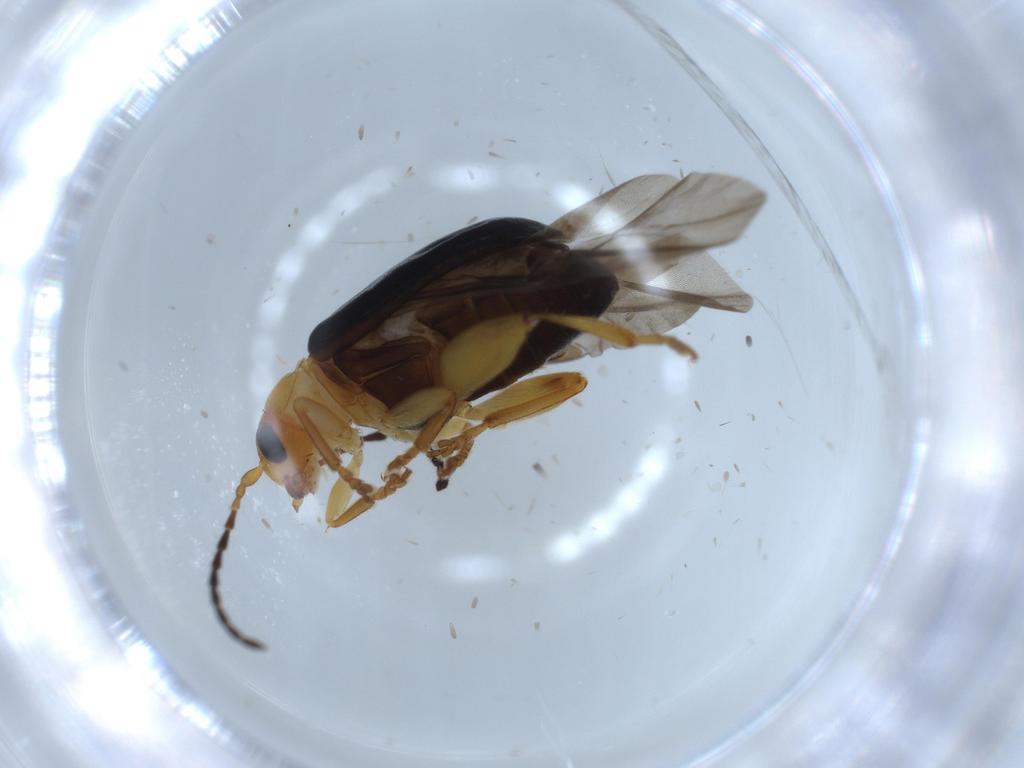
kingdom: Animalia
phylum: Arthropoda
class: Insecta
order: Coleoptera
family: Chrysomelidae
